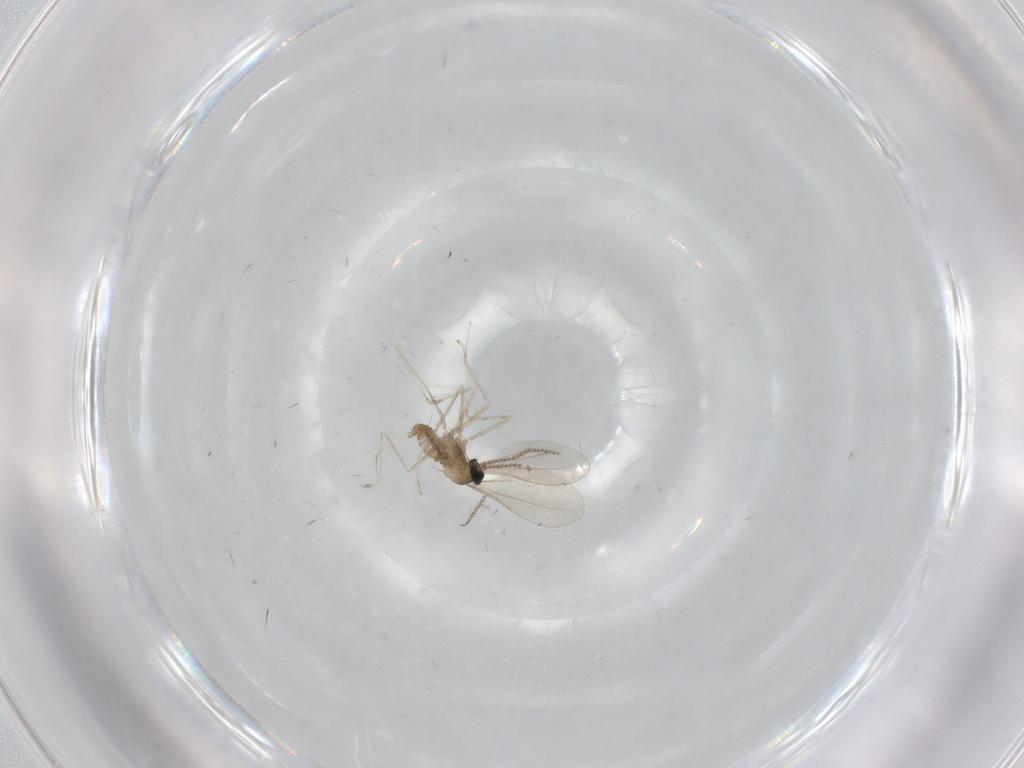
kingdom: Animalia
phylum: Arthropoda
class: Insecta
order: Diptera
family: Cecidomyiidae
